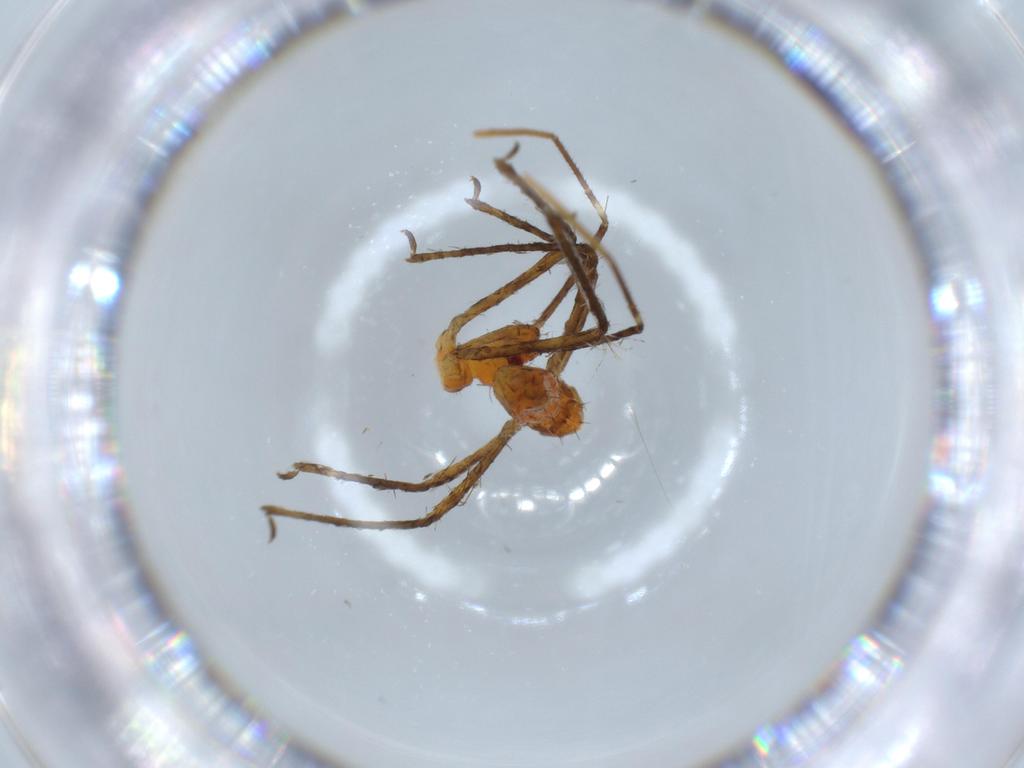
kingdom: Animalia
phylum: Arthropoda
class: Insecta
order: Hemiptera
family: Reduviidae
